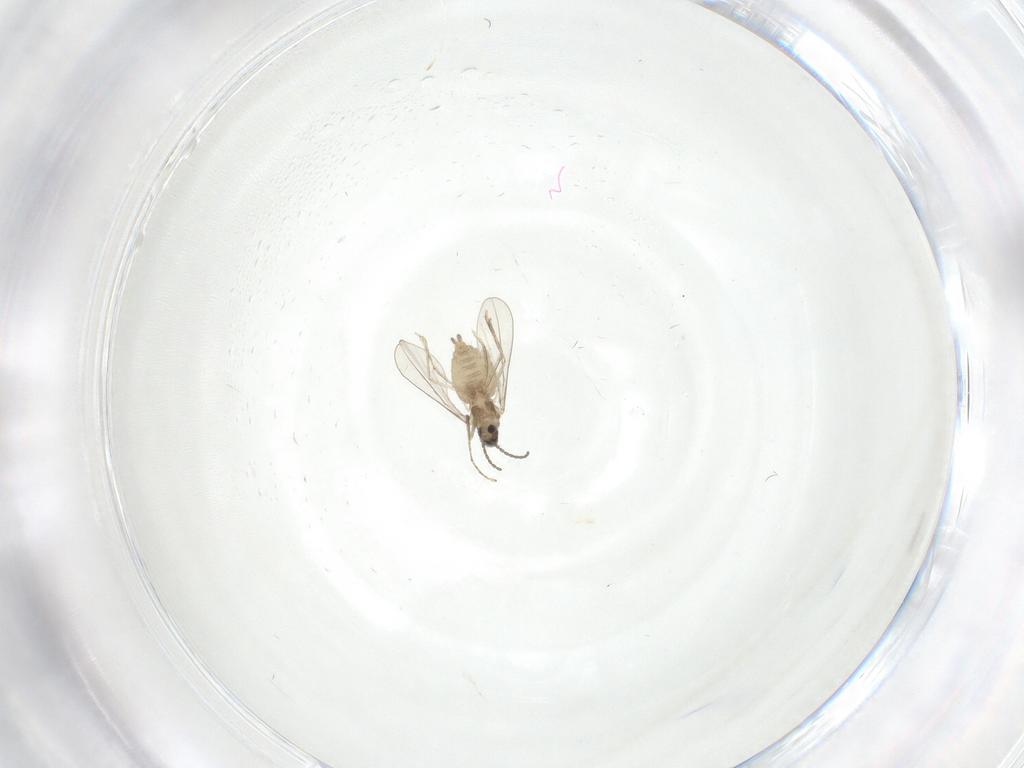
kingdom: Animalia
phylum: Arthropoda
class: Insecta
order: Diptera
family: Cecidomyiidae
